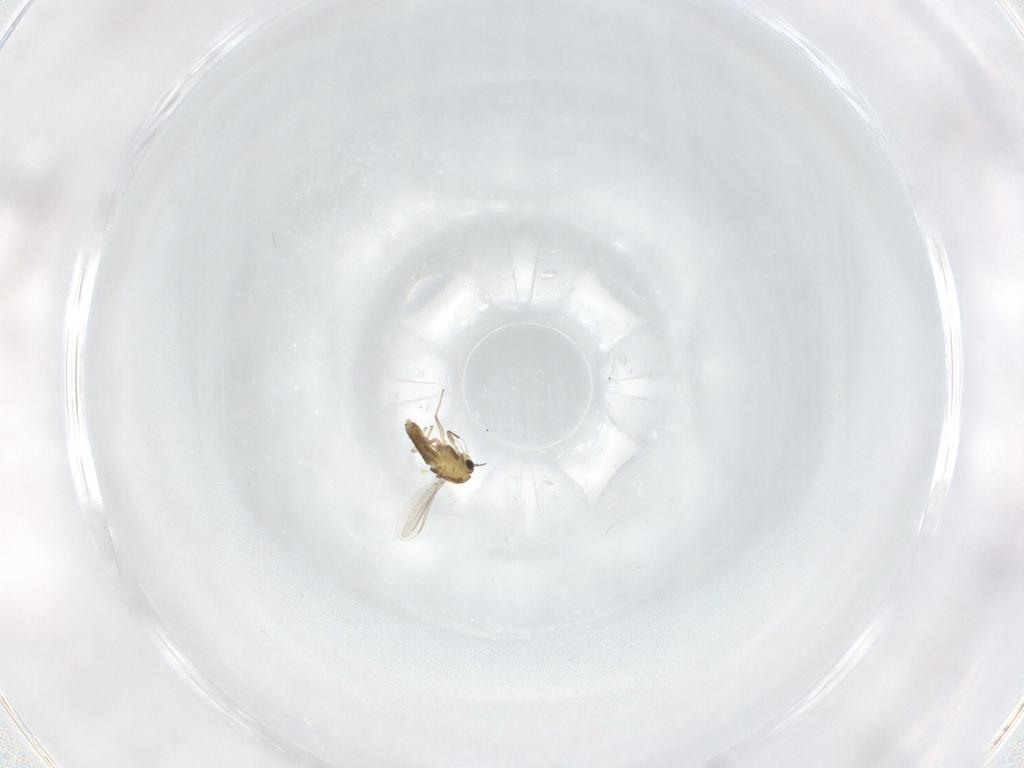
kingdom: Animalia
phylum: Arthropoda
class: Insecta
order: Diptera
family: Chironomidae
